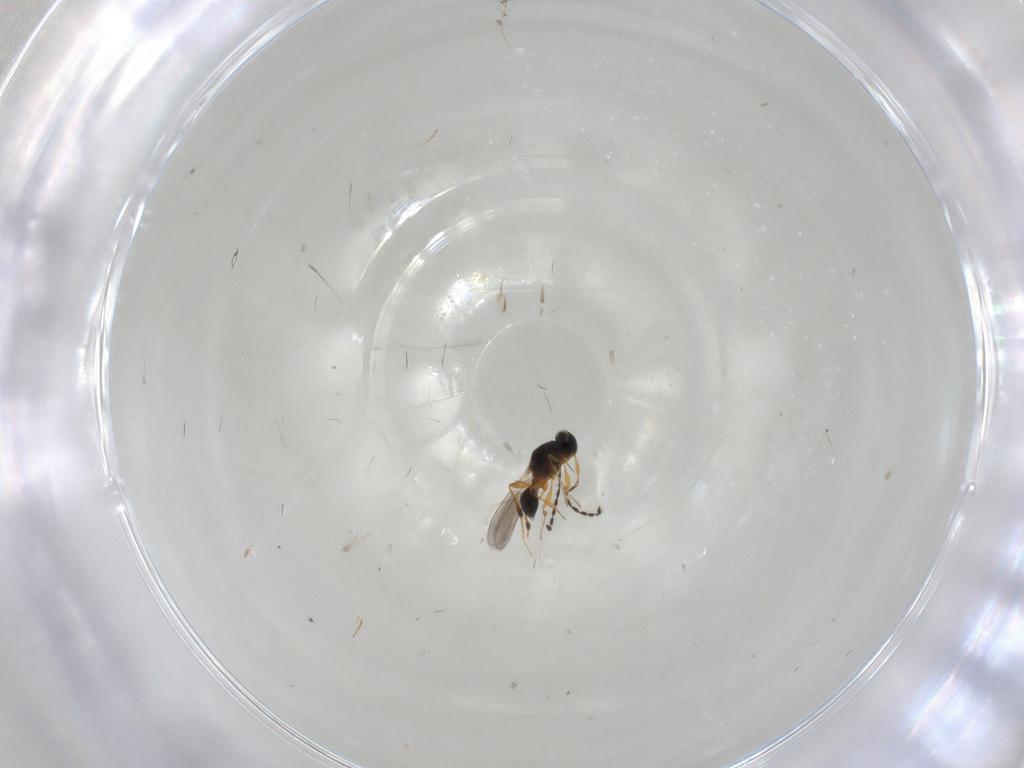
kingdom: Animalia
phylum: Arthropoda
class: Insecta
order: Hymenoptera
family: Platygastridae
